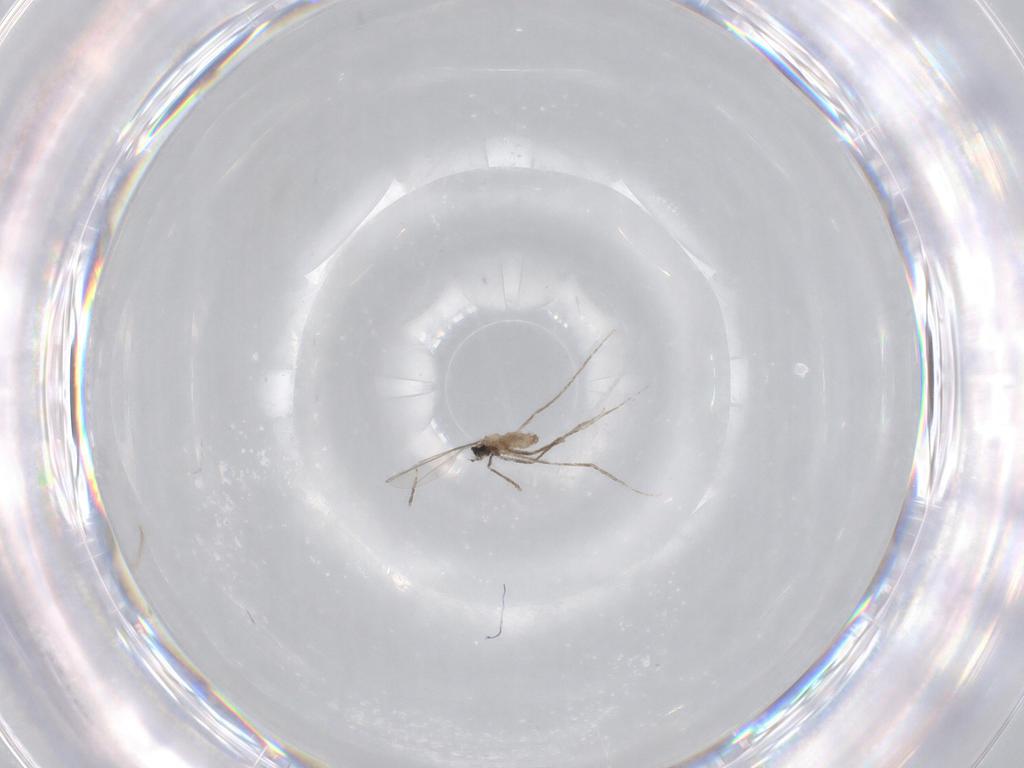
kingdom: Animalia
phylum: Arthropoda
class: Insecta
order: Diptera
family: Cecidomyiidae
